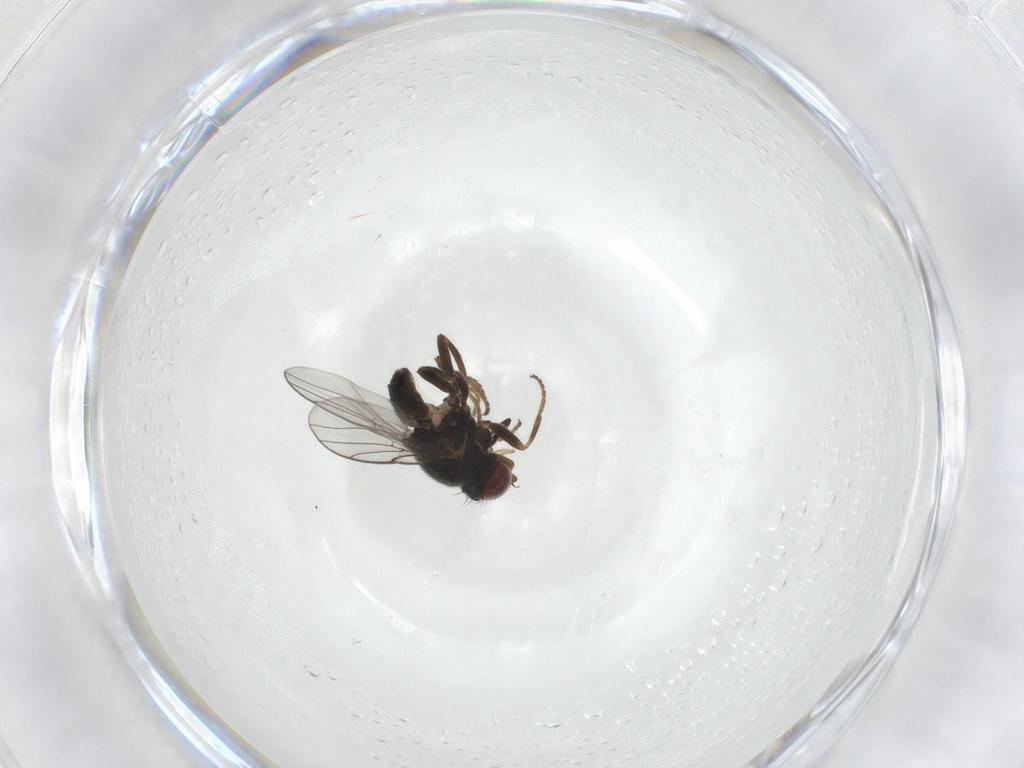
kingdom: Animalia
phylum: Arthropoda
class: Insecta
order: Diptera
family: Chloropidae
